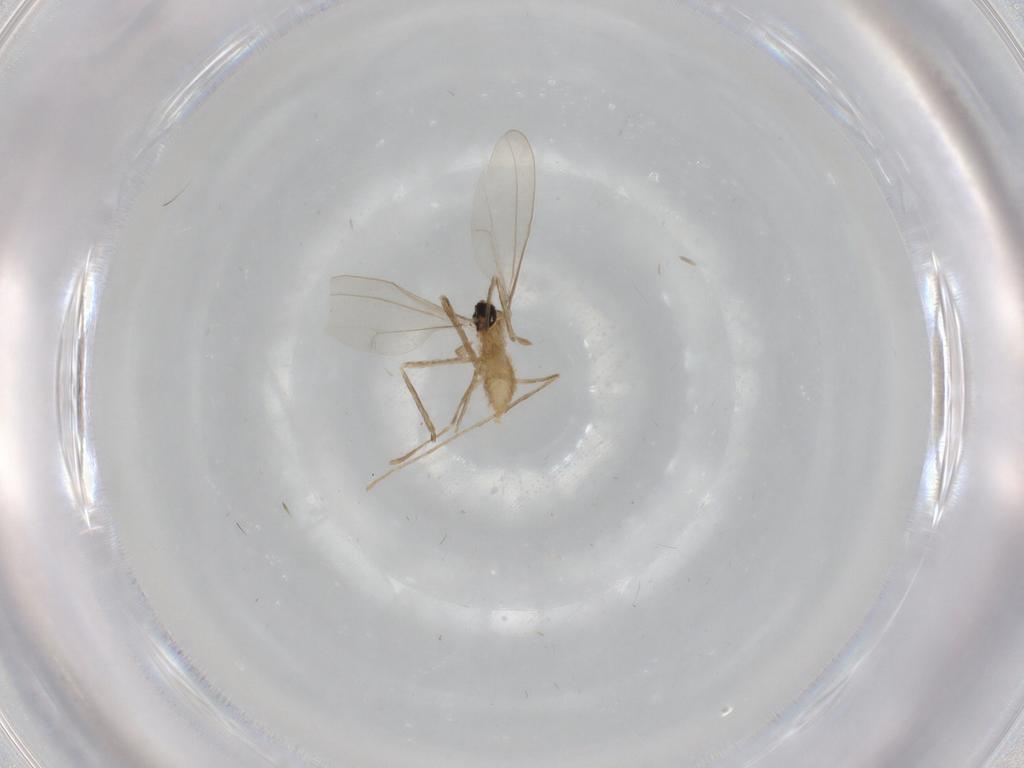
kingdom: Animalia
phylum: Arthropoda
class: Insecta
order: Diptera
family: Cecidomyiidae
